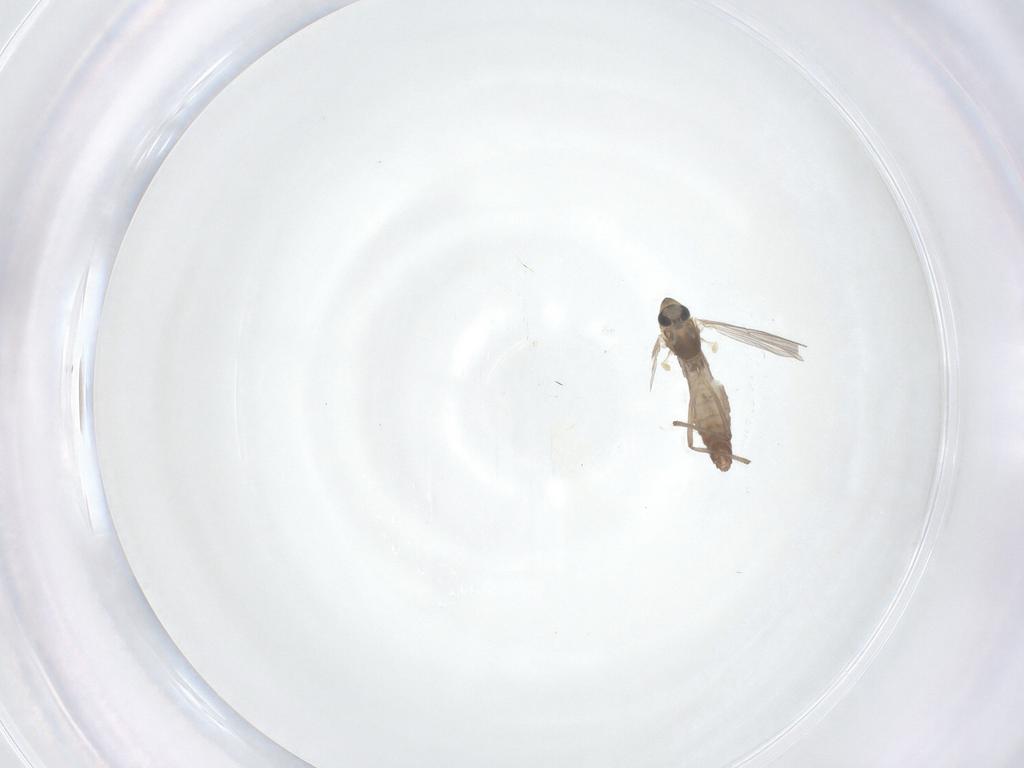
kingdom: Animalia
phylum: Arthropoda
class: Insecta
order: Diptera
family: Chironomidae
